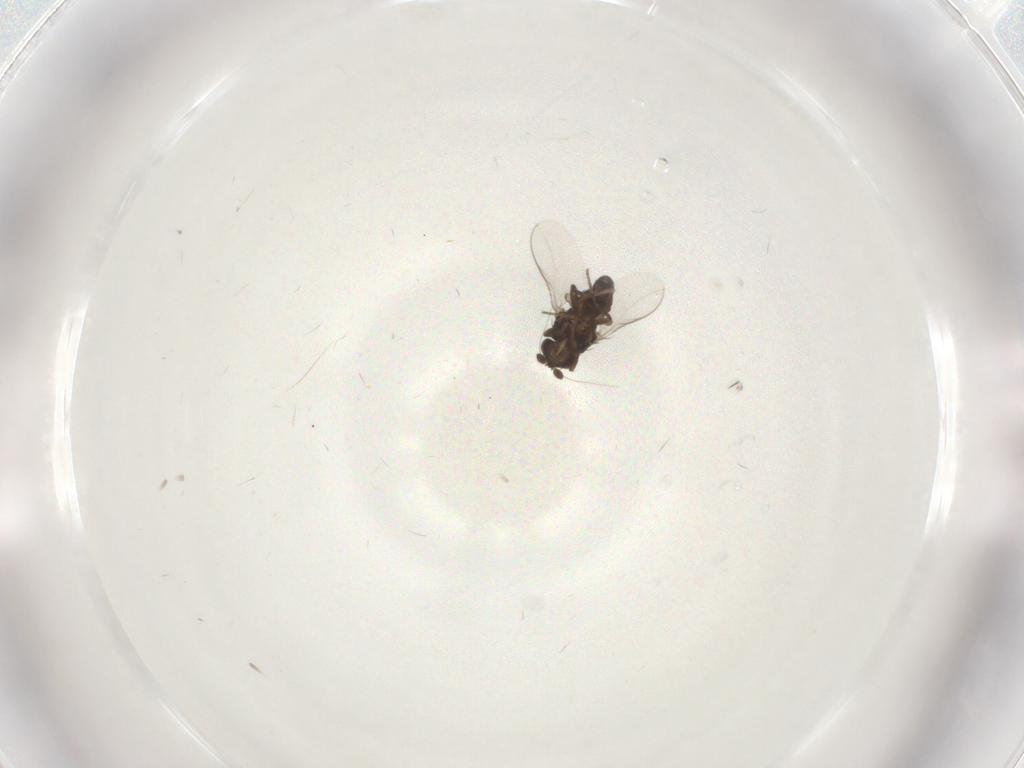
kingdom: Animalia
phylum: Arthropoda
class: Insecta
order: Diptera
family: Sphaeroceridae
